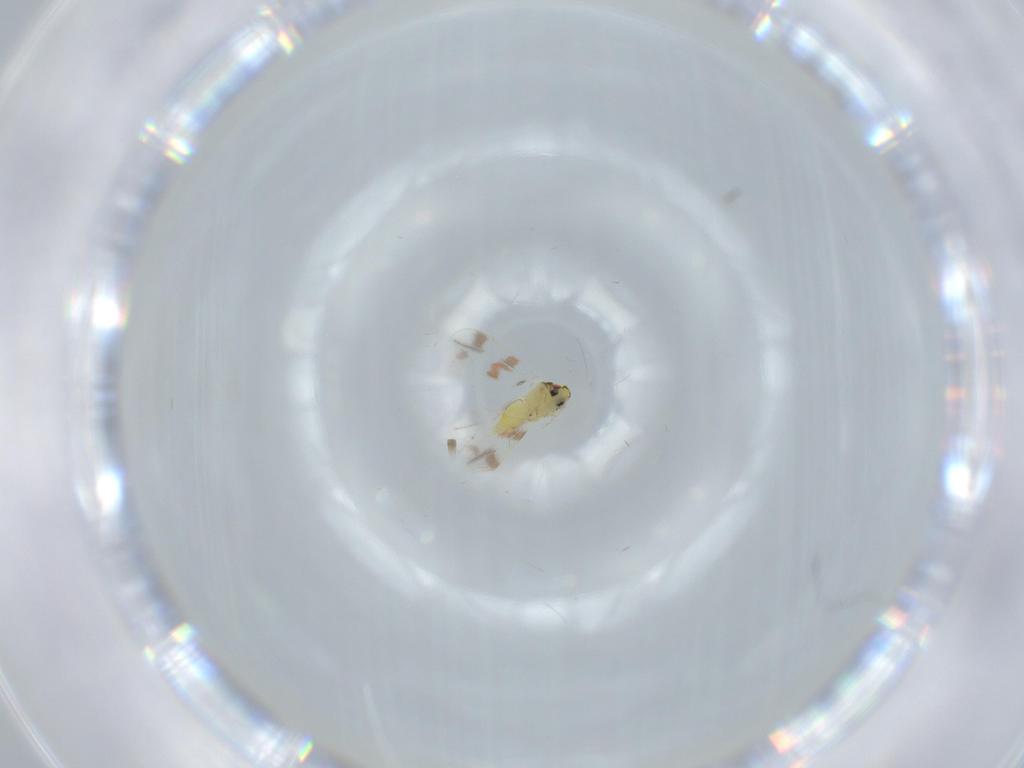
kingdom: Animalia
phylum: Arthropoda
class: Insecta
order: Hemiptera
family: Aleyrodidae
